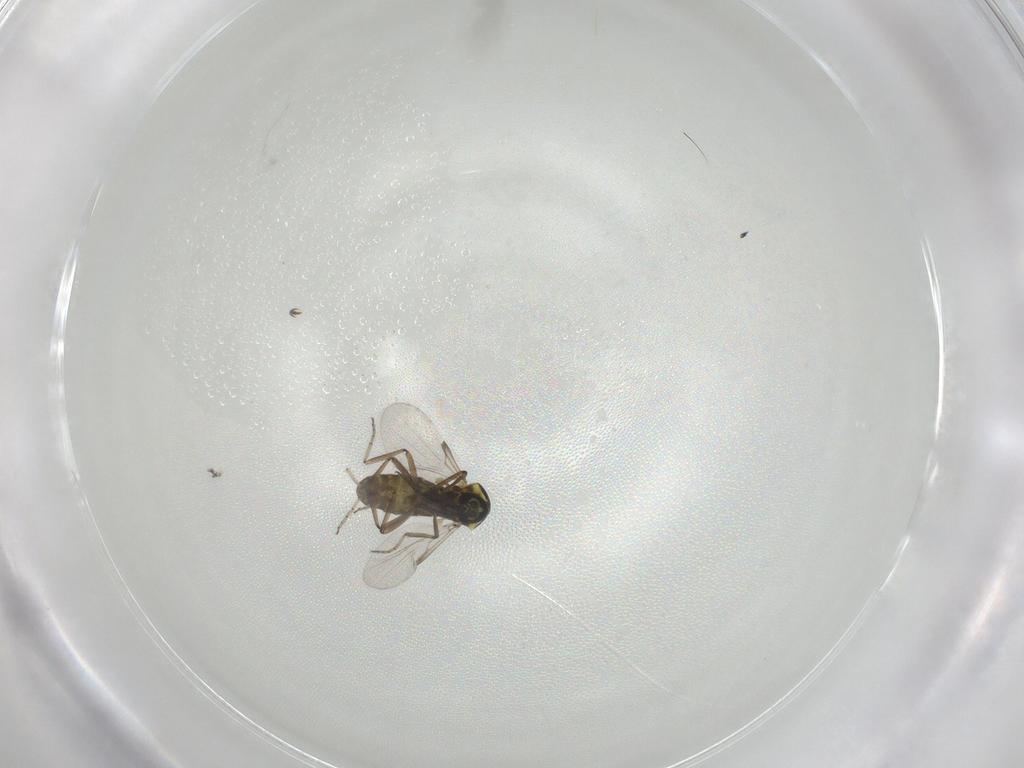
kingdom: Animalia
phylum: Arthropoda
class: Insecta
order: Diptera
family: Ceratopogonidae
